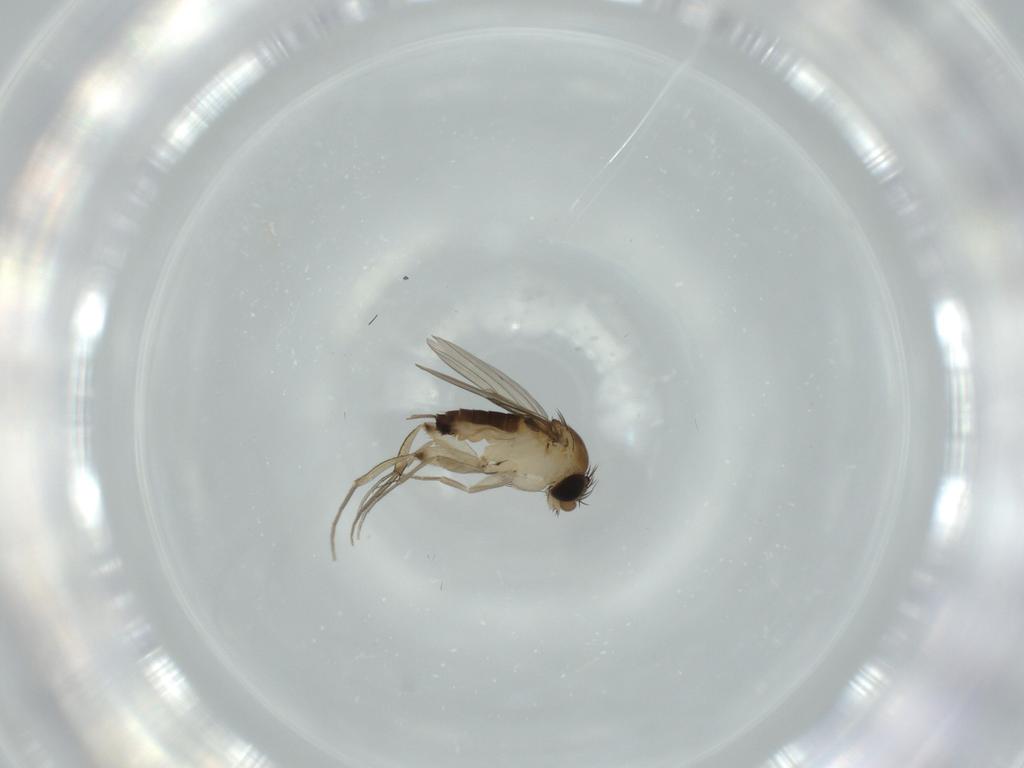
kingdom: Animalia
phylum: Arthropoda
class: Insecta
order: Diptera
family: Phoridae
